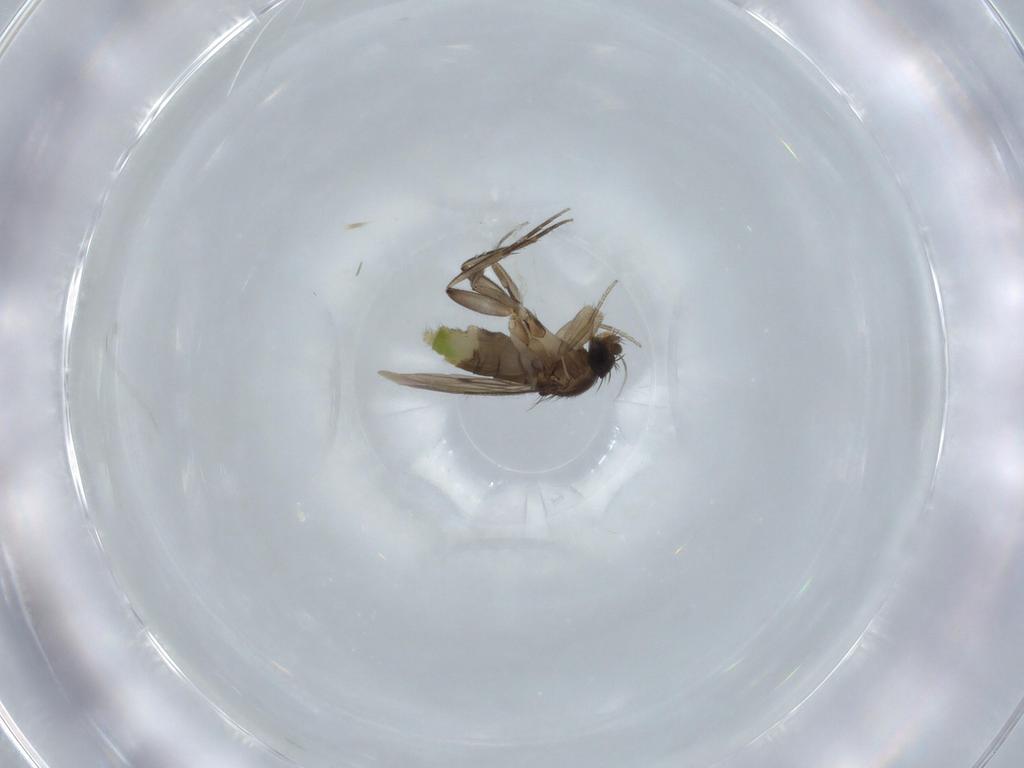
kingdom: Animalia
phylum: Arthropoda
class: Insecta
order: Diptera
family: Phoridae
